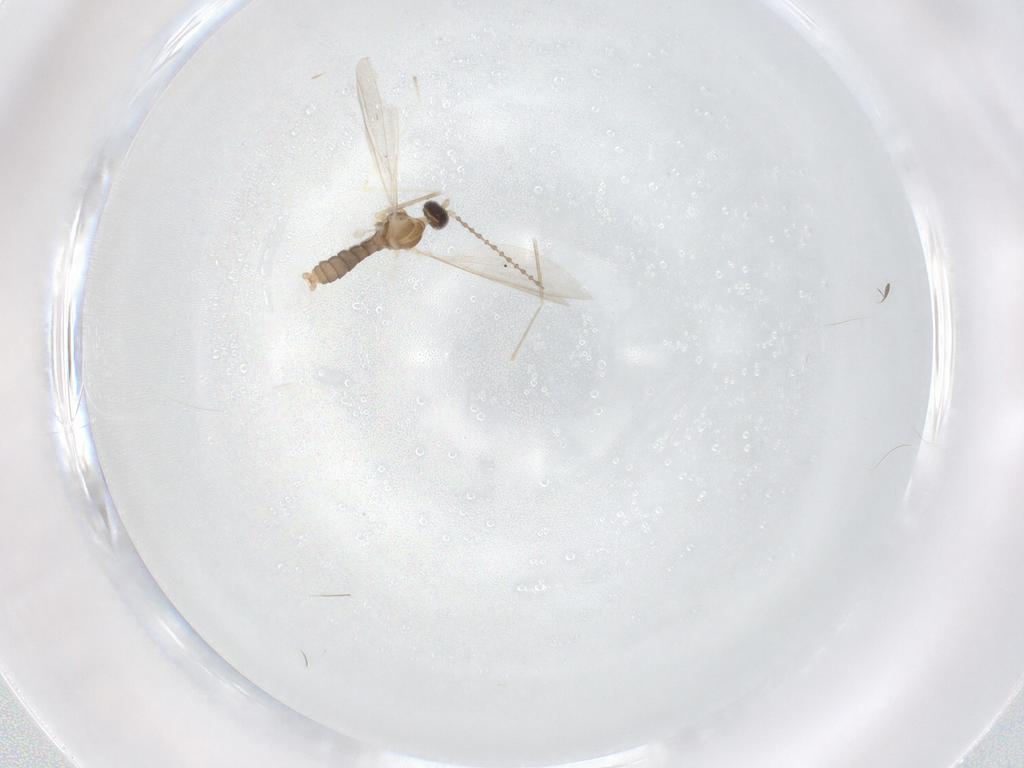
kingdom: Animalia
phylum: Arthropoda
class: Insecta
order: Diptera
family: Cecidomyiidae
